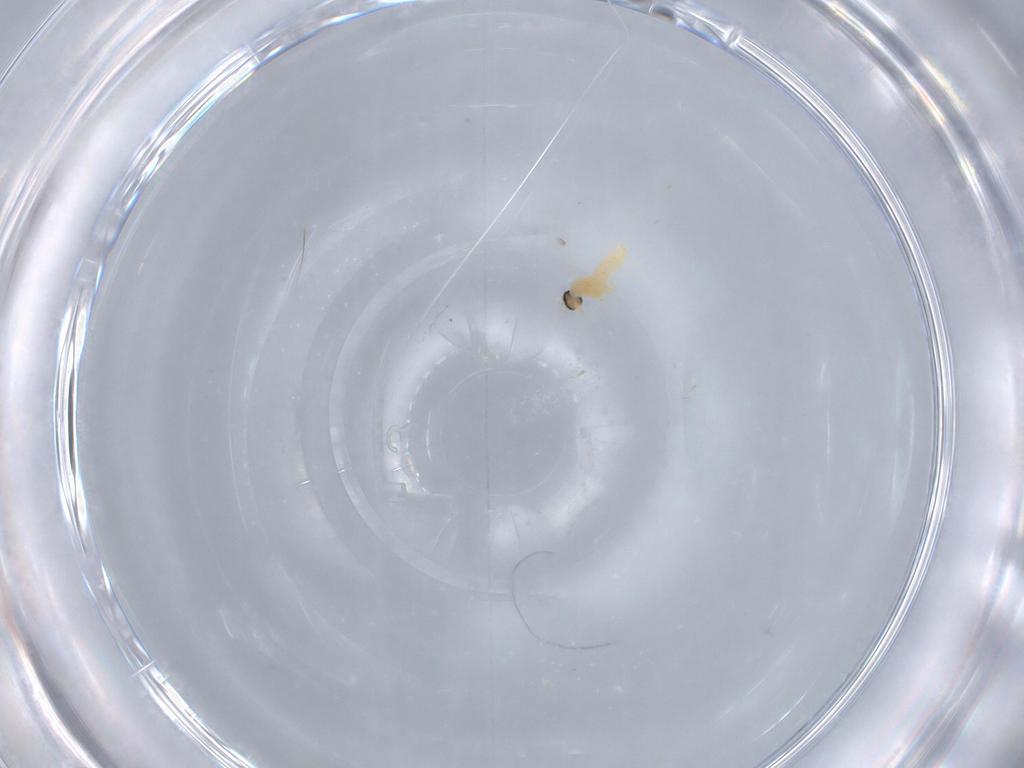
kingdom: Animalia
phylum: Arthropoda
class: Insecta
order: Diptera
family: Cecidomyiidae
